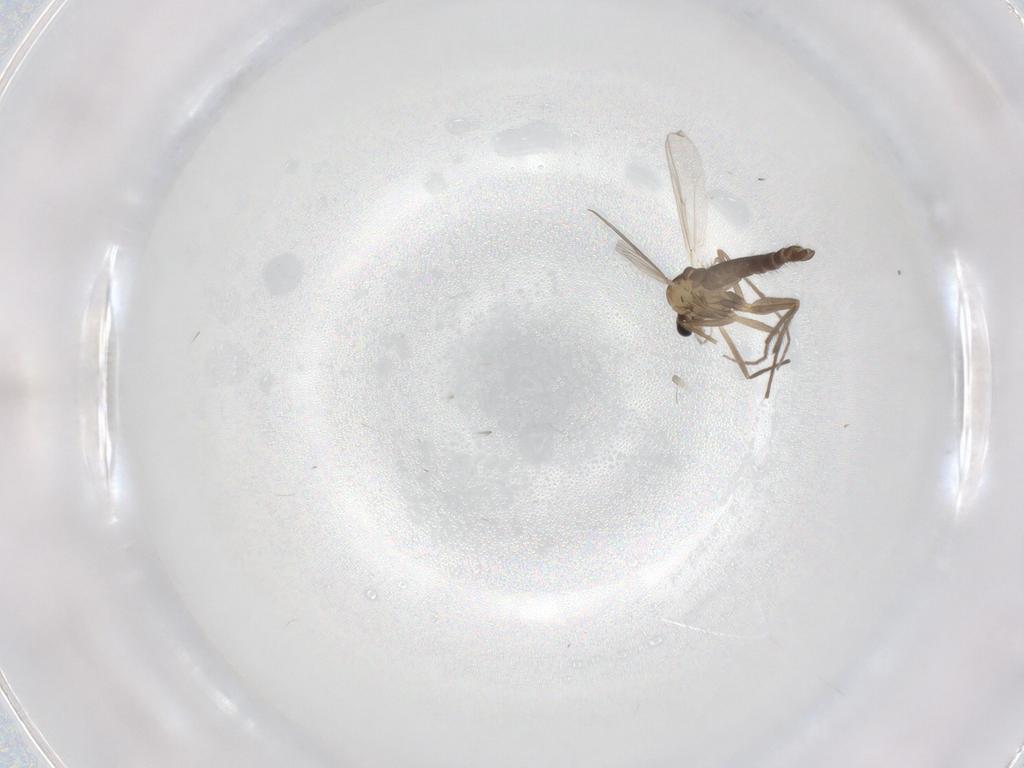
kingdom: Animalia
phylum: Arthropoda
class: Insecta
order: Diptera
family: Chironomidae
